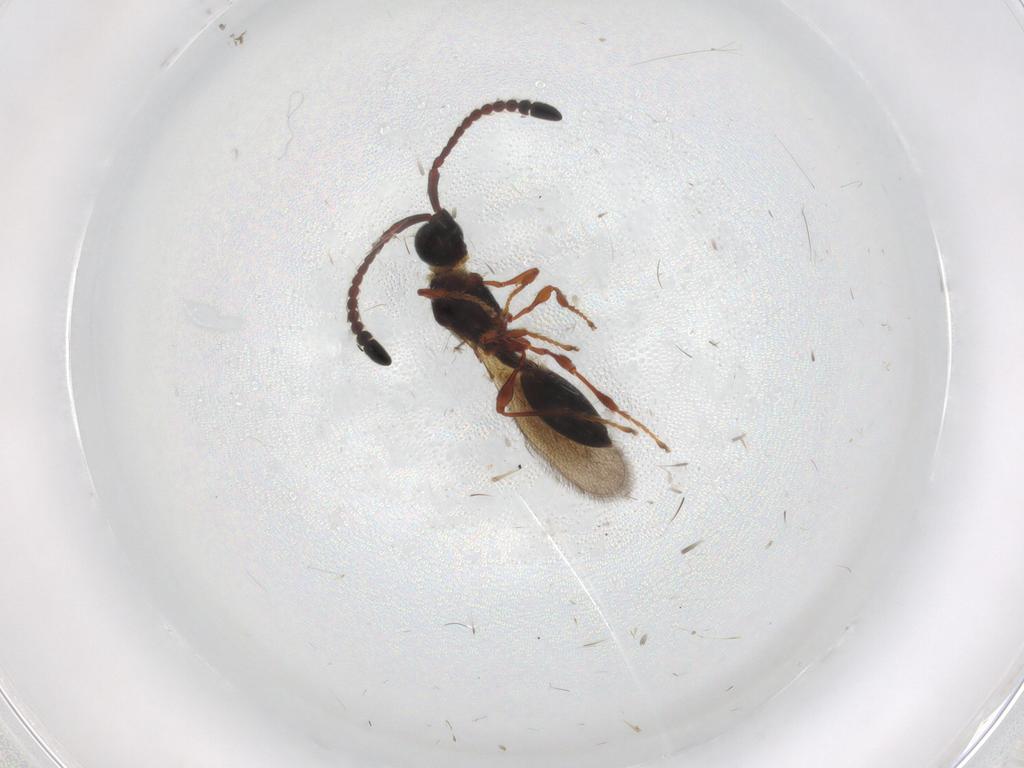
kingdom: Animalia
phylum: Arthropoda
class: Insecta
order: Hymenoptera
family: Diapriidae
